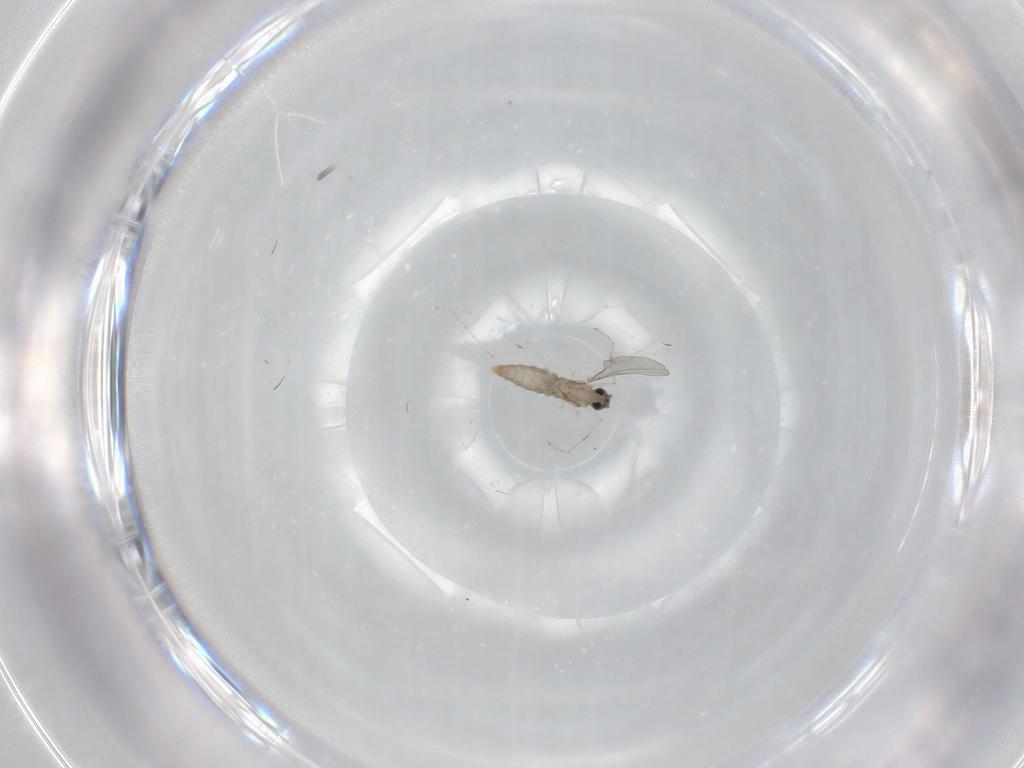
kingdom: Animalia
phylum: Arthropoda
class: Insecta
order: Diptera
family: Cecidomyiidae
